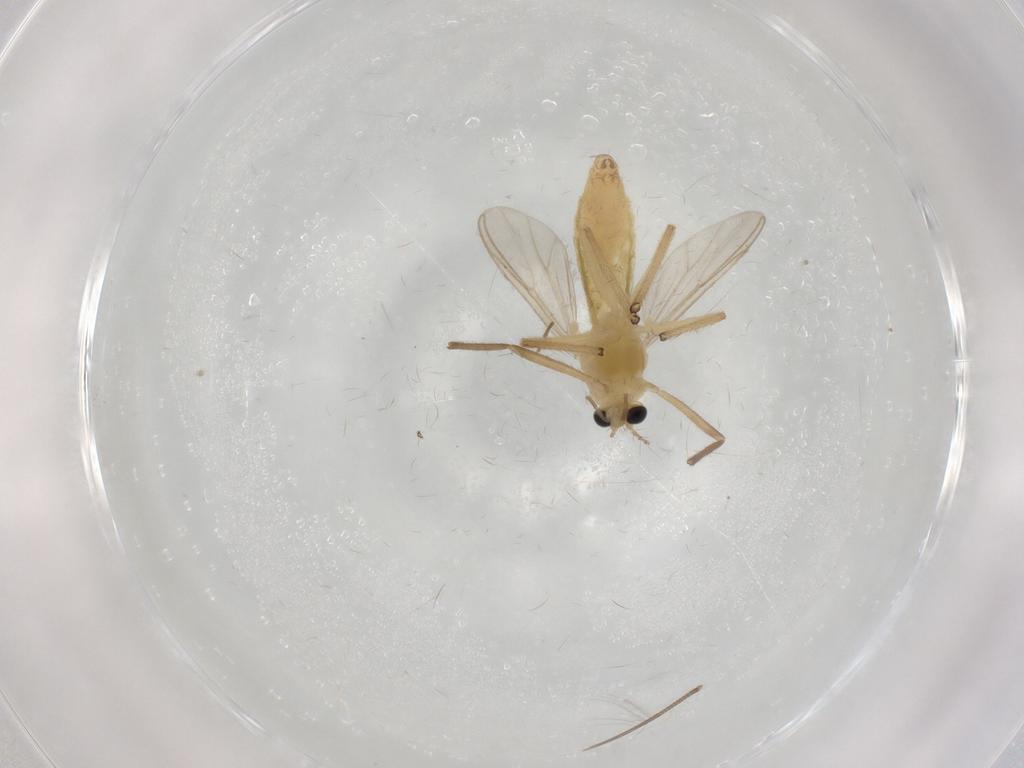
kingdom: Animalia
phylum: Arthropoda
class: Insecta
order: Diptera
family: Chironomidae
